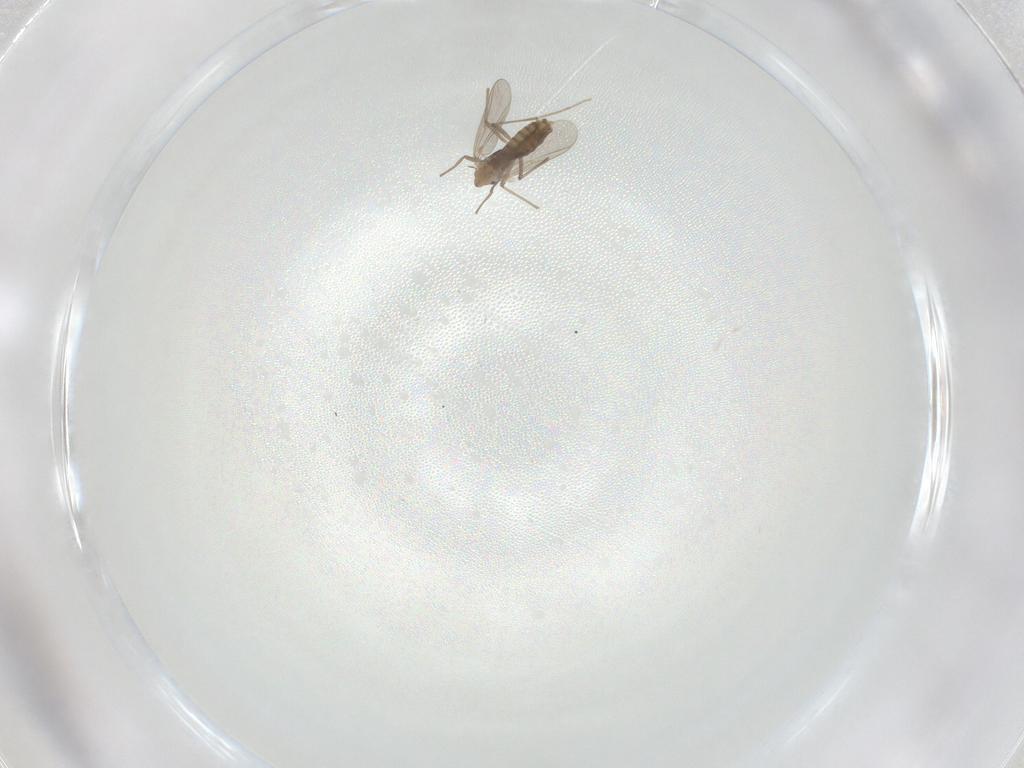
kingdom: Animalia
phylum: Arthropoda
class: Insecta
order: Diptera
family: Chironomidae
